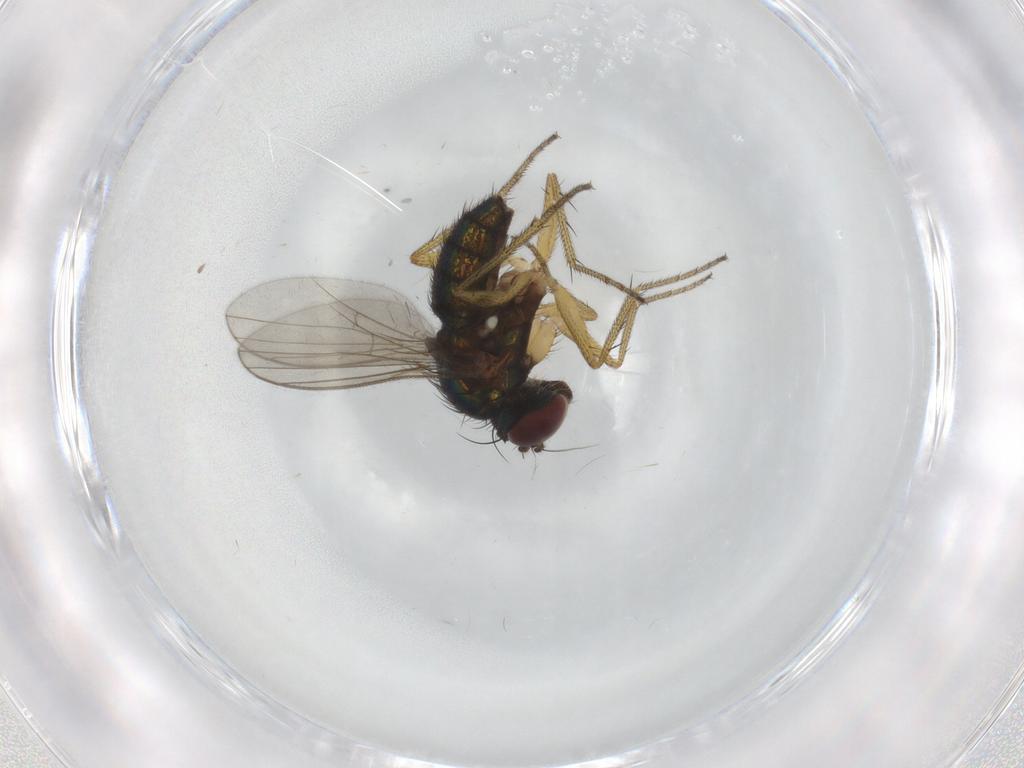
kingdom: Animalia
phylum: Arthropoda
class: Insecta
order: Diptera
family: Dolichopodidae
